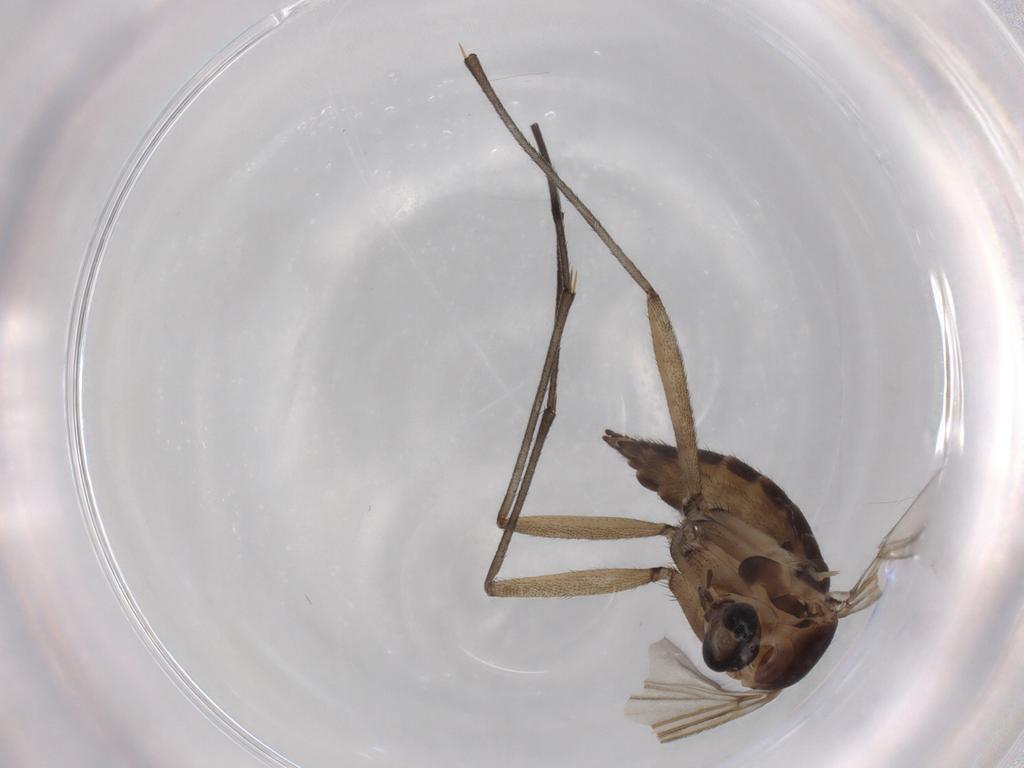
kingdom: Animalia
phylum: Arthropoda
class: Insecta
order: Diptera
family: Sciaridae
